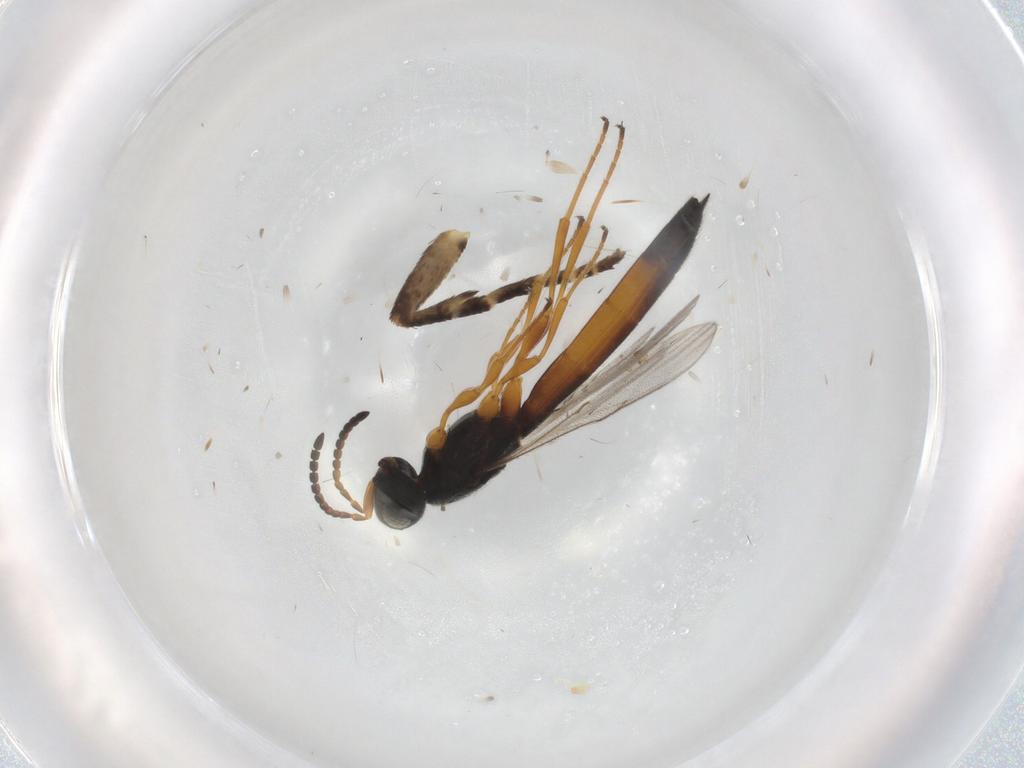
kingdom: Animalia
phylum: Arthropoda
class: Insecta
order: Hymenoptera
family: Scelionidae
